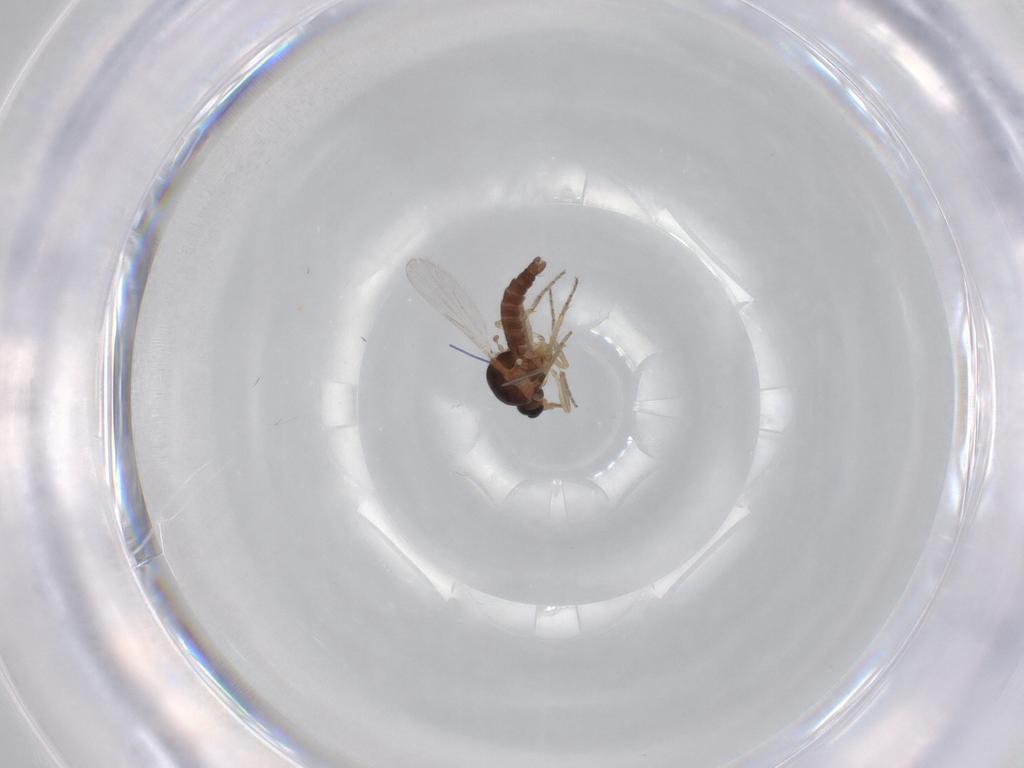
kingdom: Animalia
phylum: Arthropoda
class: Insecta
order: Diptera
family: Ceratopogonidae
